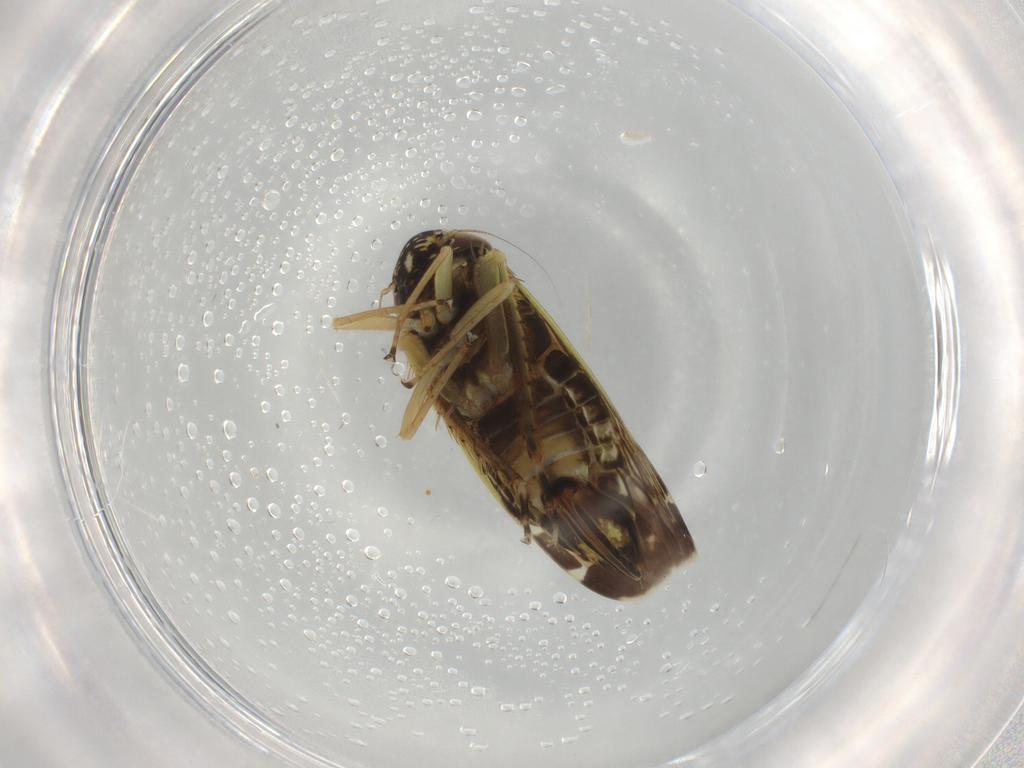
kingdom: Animalia
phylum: Arthropoda
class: Insecta
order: Hemiptera
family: Cicadellidae
